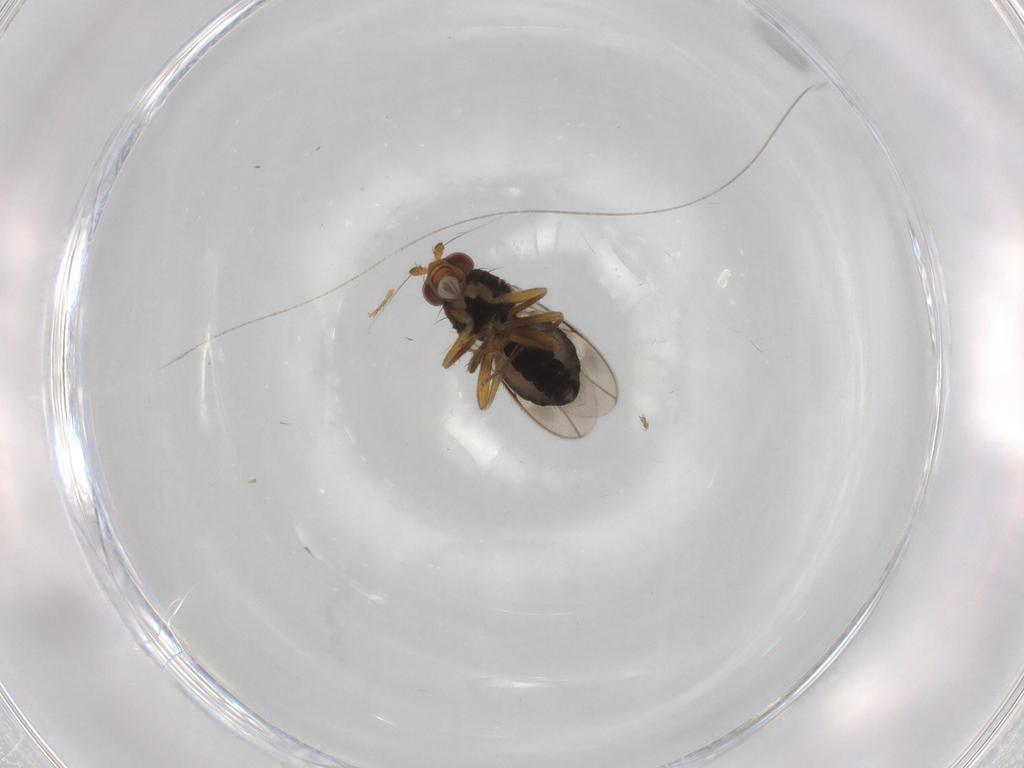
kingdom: Animalia
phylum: Arthropoda
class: Insecta
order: Diptera
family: Sphaeroceridae
